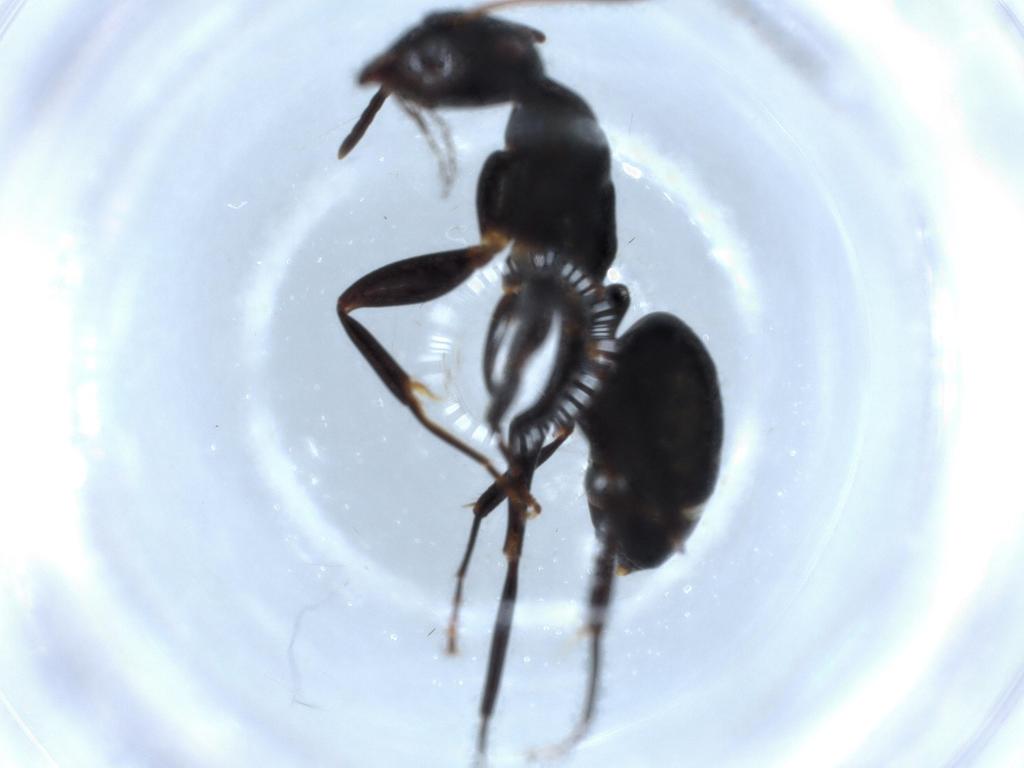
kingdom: Animalia
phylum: Arthropoda
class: Insecta
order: Hymenoptera
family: Formicidae
